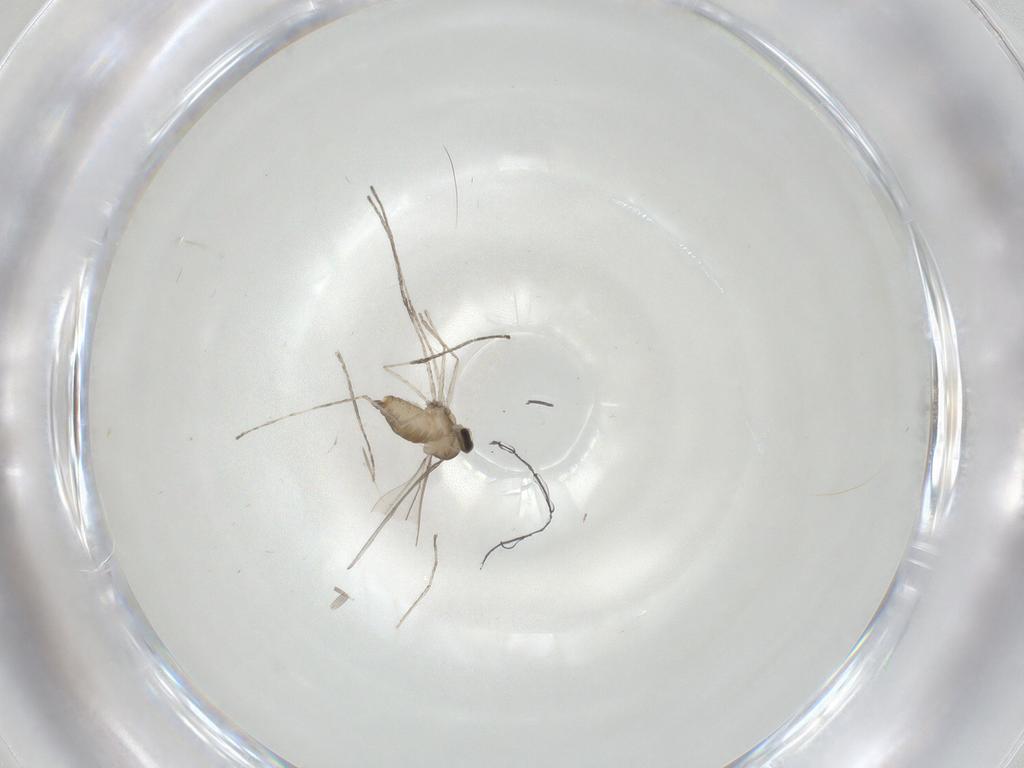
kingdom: Animalia
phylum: Arthropoda
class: Insecta
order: Diptera
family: Cecidomyiidae
